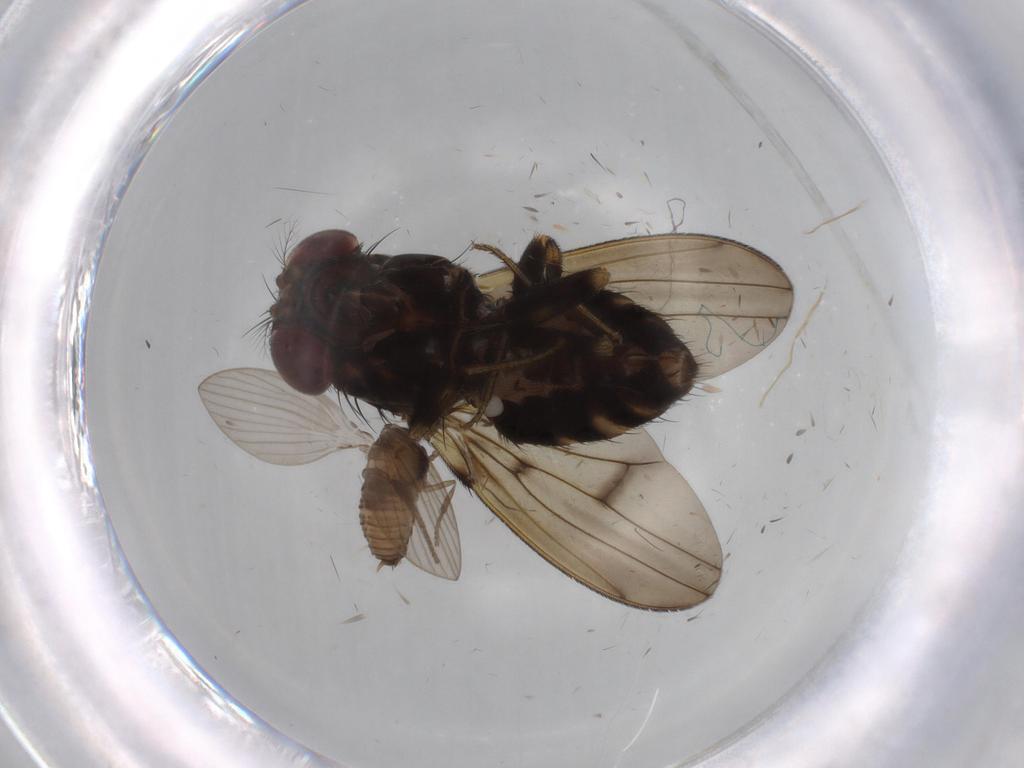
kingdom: Animalia
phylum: Arthropoda
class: Insecta
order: Diptera
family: Drosophilidae
